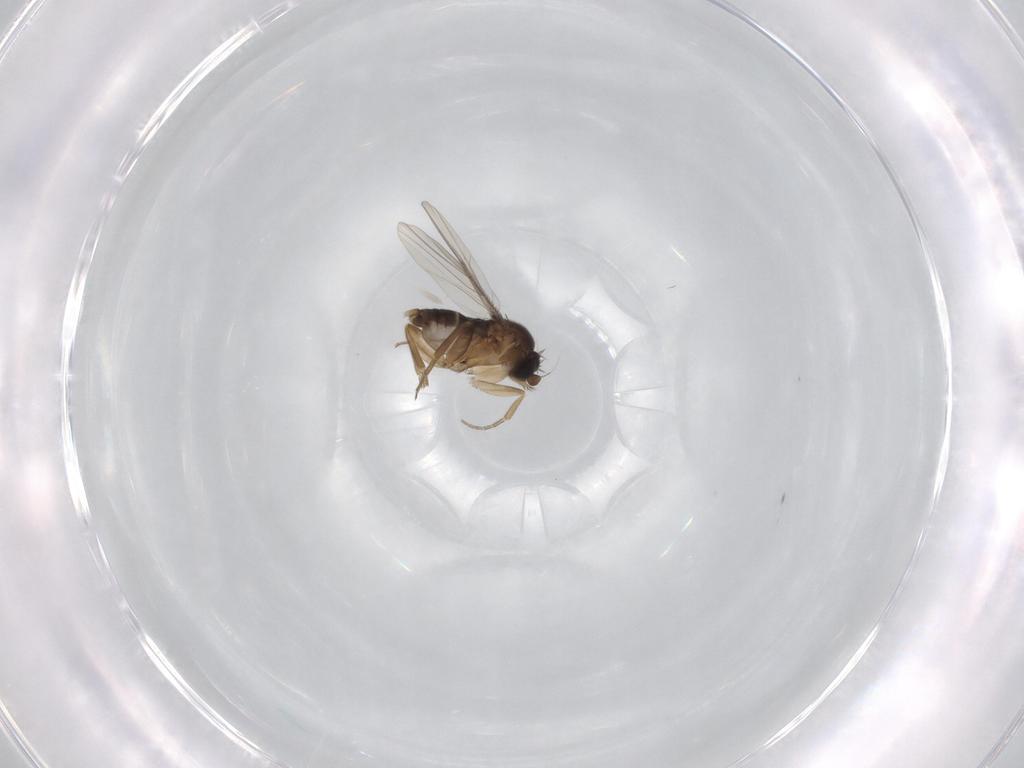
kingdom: Animalia
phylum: Arthropoda
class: Insecta
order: Diptera
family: Phoridae
